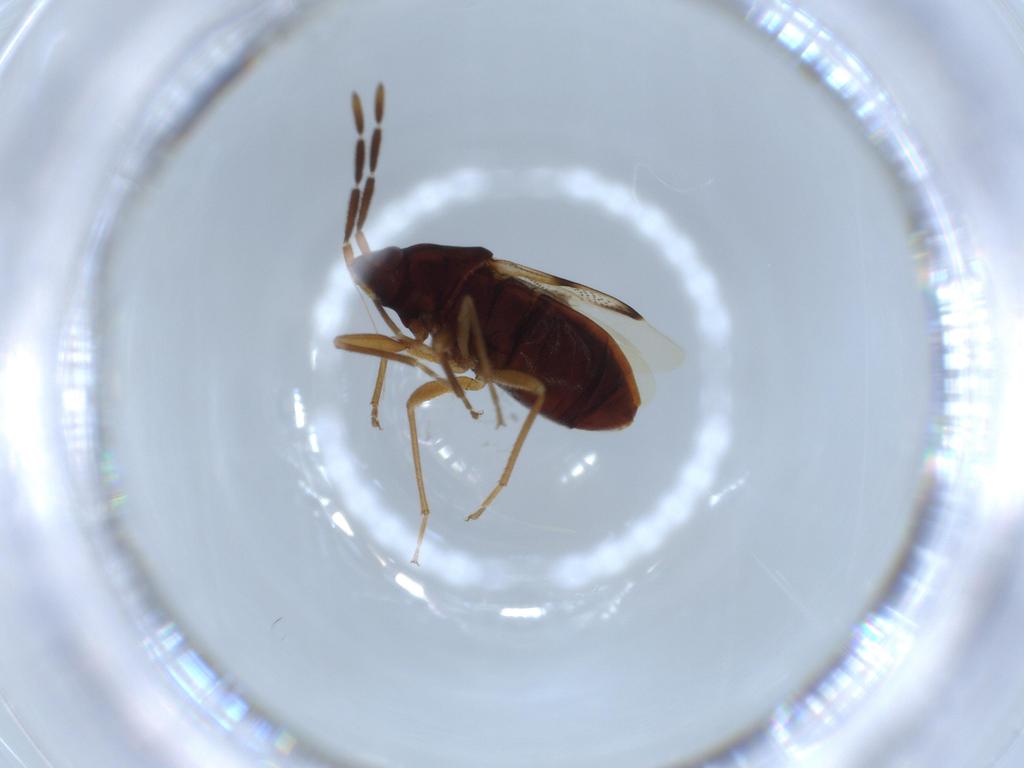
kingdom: Animalia
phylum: Arthropoda
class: Insecta
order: Hemiptera
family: Rhyparochromidae
